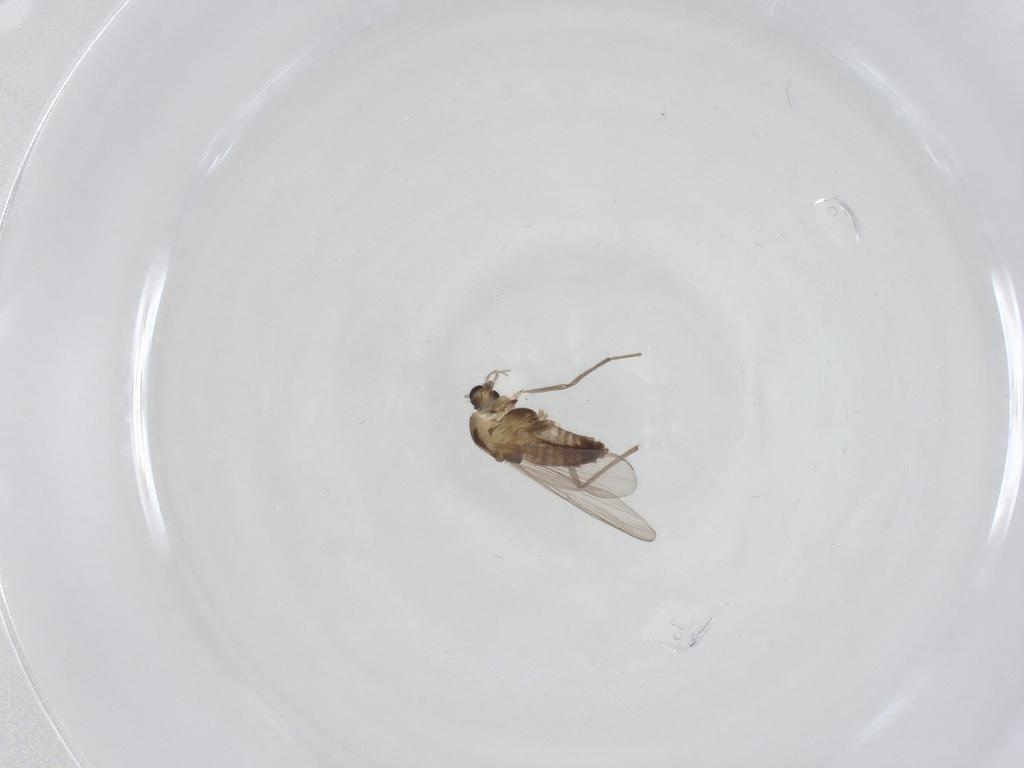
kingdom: Animalia
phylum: Arthropoda
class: Insecta
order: Diptera
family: Chironomidae
